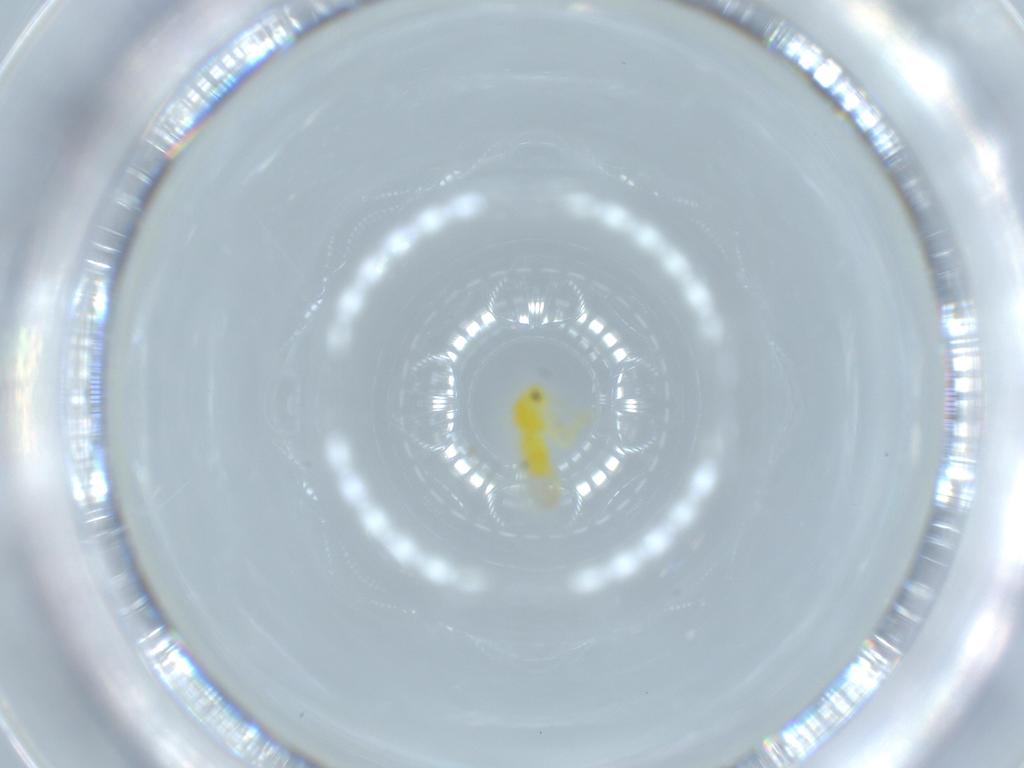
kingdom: Animalia
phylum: Arthropoda
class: Insecta
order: Hemiptera
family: Aleyrodidae
